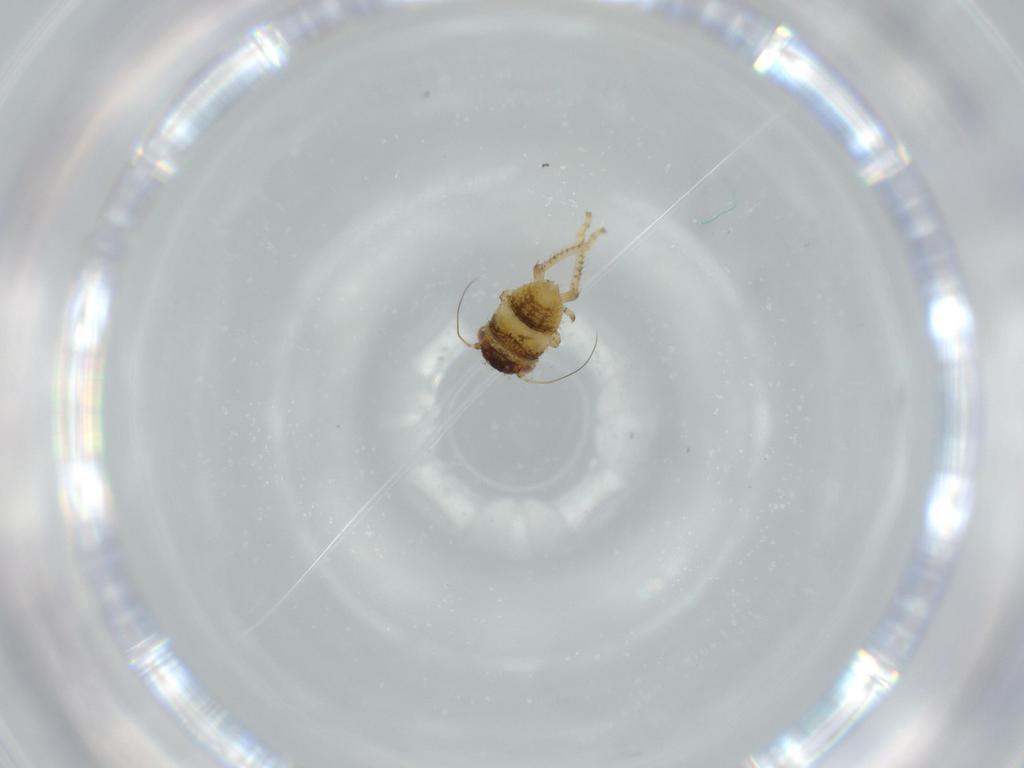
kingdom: Animalia
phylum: Arthropoda
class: Insecta
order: Hemiptera
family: Cicadellidae
